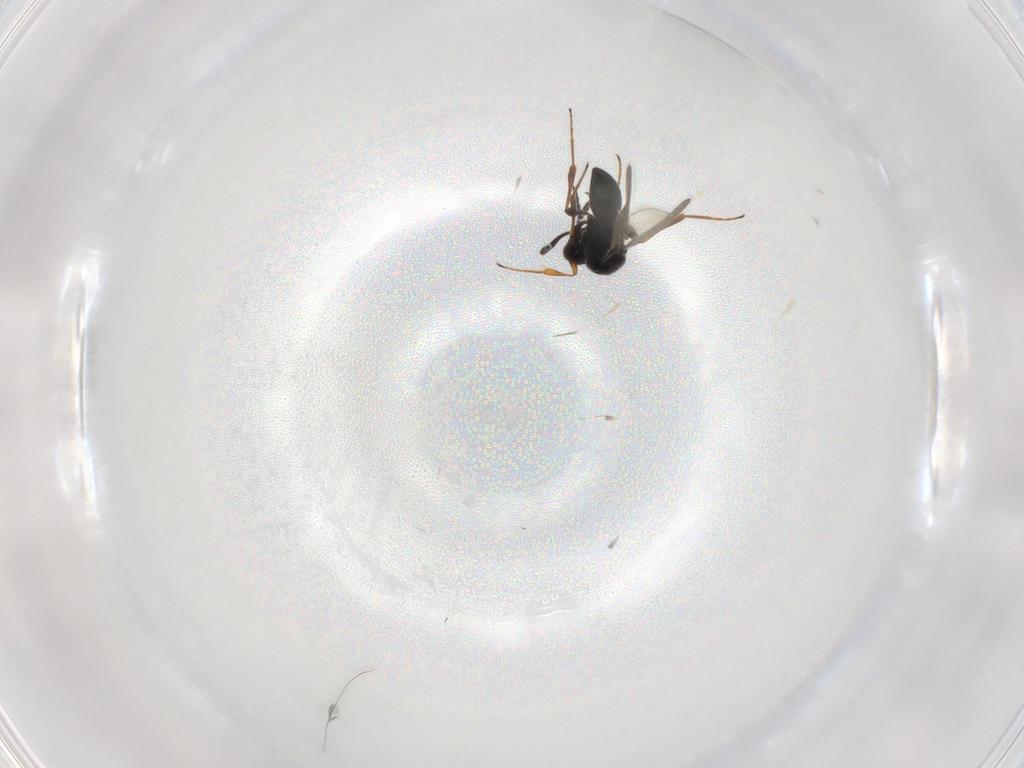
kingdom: Animalia
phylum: Arthropoda
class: Insecta
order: Hymenoptera
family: Platygastridae
